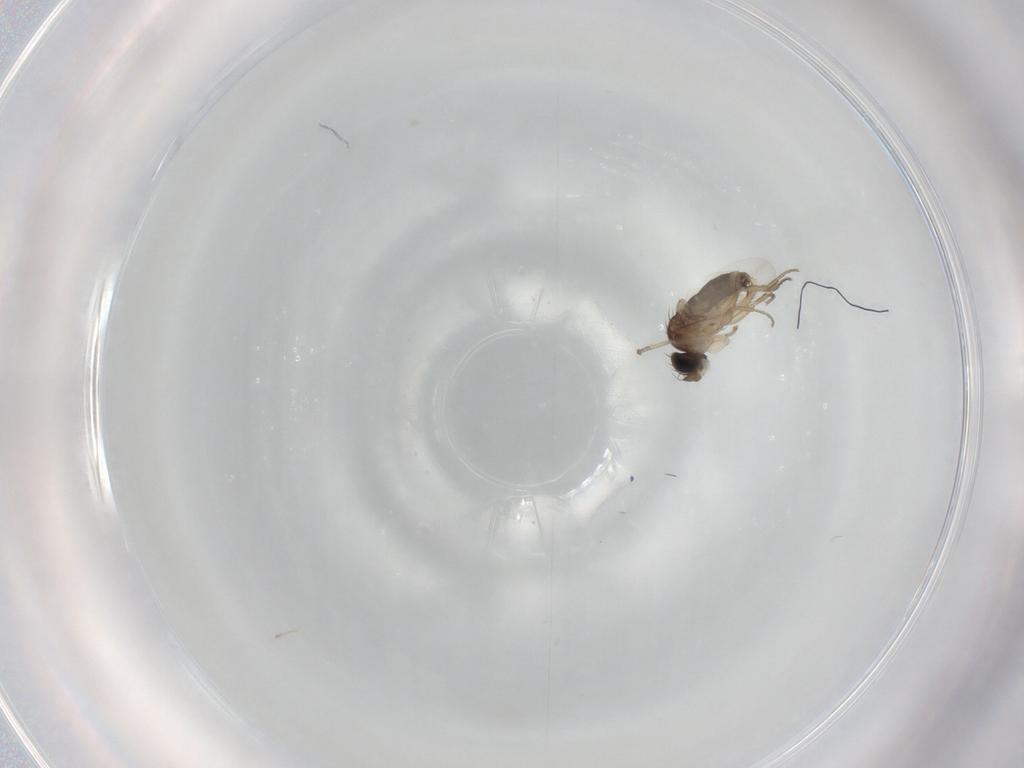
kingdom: Animalia
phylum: Arthropoda
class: Insecta
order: Diptera
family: Phoridae
